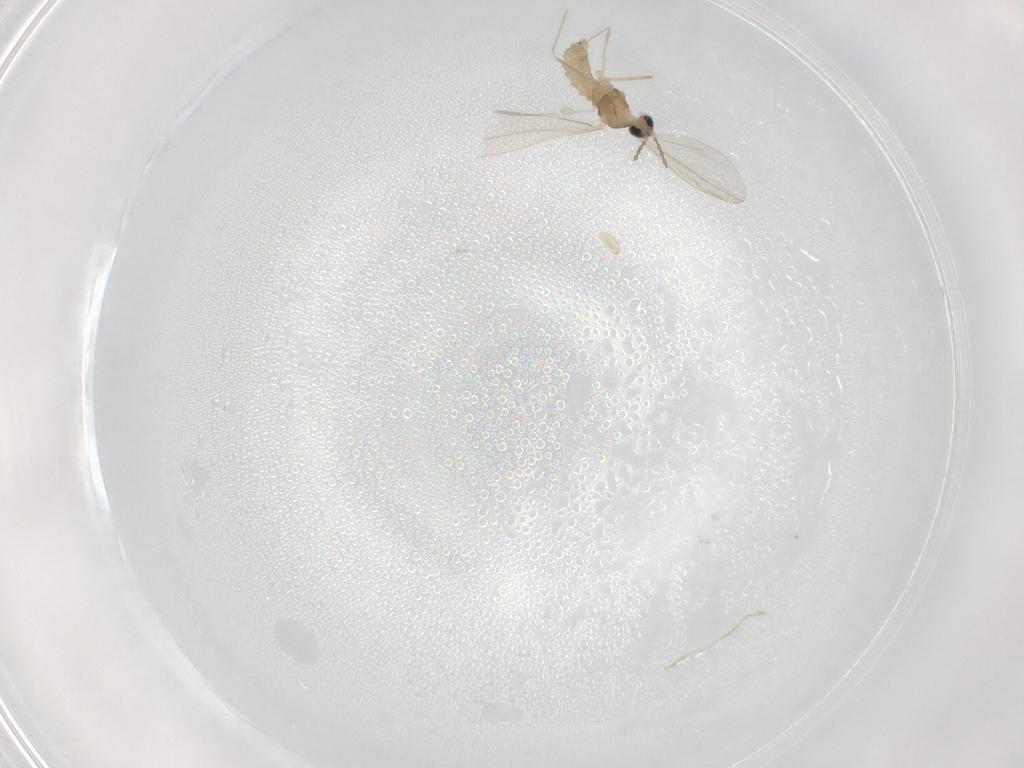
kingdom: Animalia
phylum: Arthropoda
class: Insecta
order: Diptera
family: Cecidomyiidae
